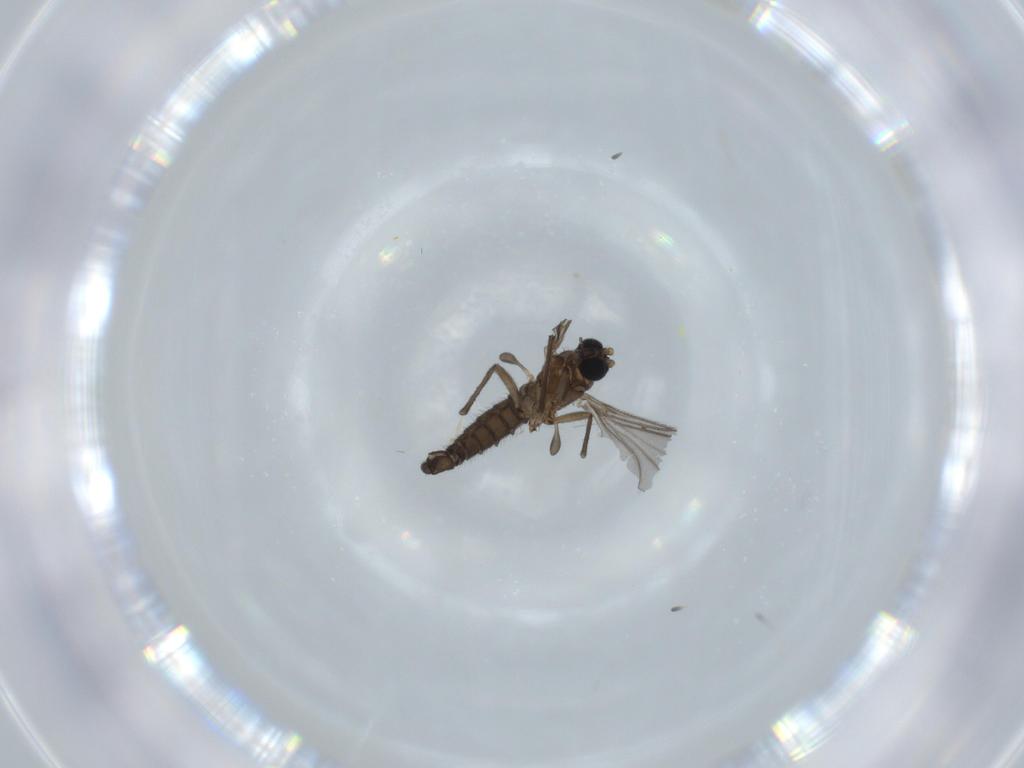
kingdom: Animalia
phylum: Arthropoda
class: Insecta
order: Diptera
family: Sciaridae
